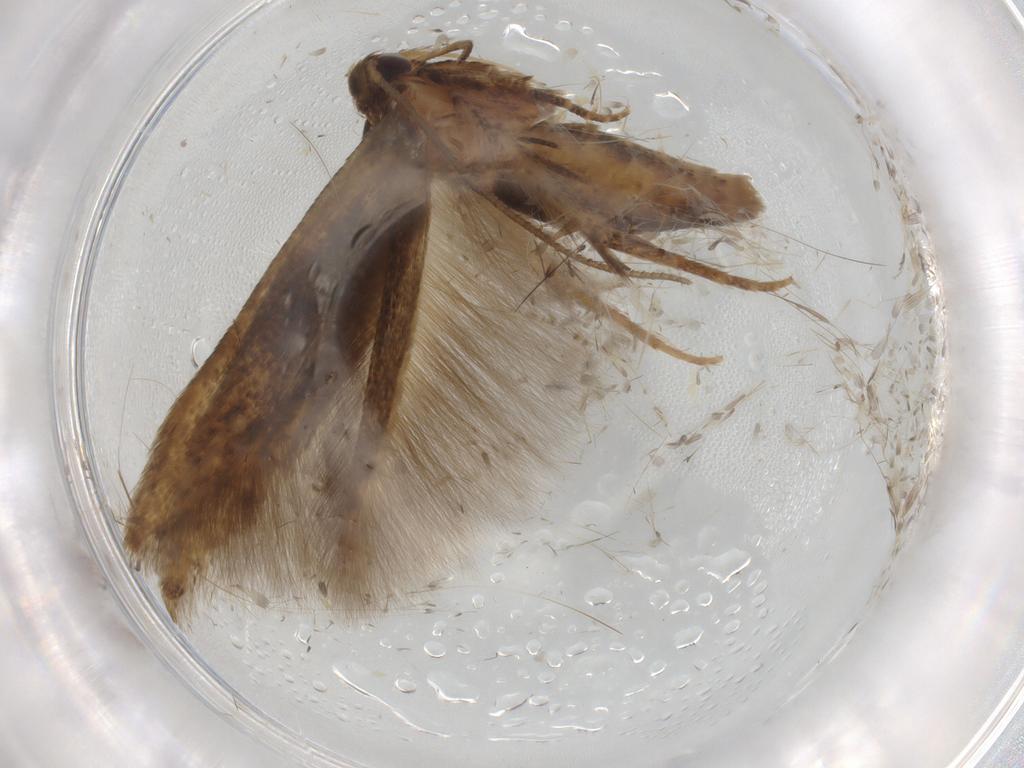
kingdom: Animalia
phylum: Arthropoda
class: Insecta
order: Lepidoptera
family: Cosmopterigidae
